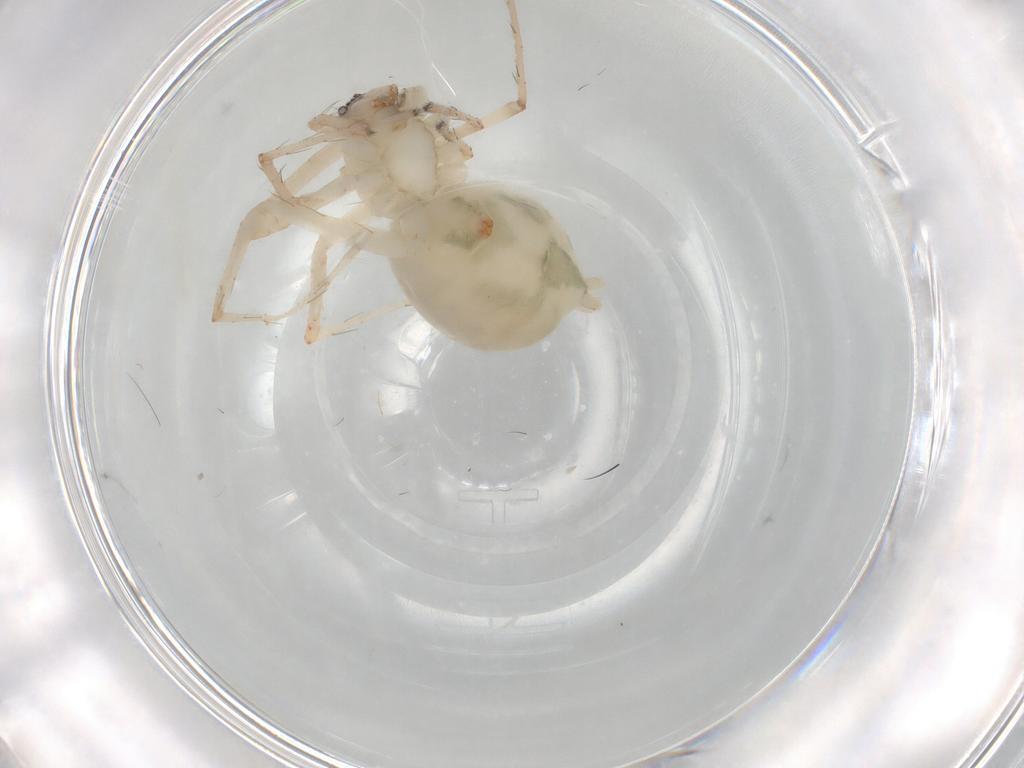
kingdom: Animalia
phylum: Arthropoda
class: Arachnida
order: Araneae
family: Anyphaenidae
